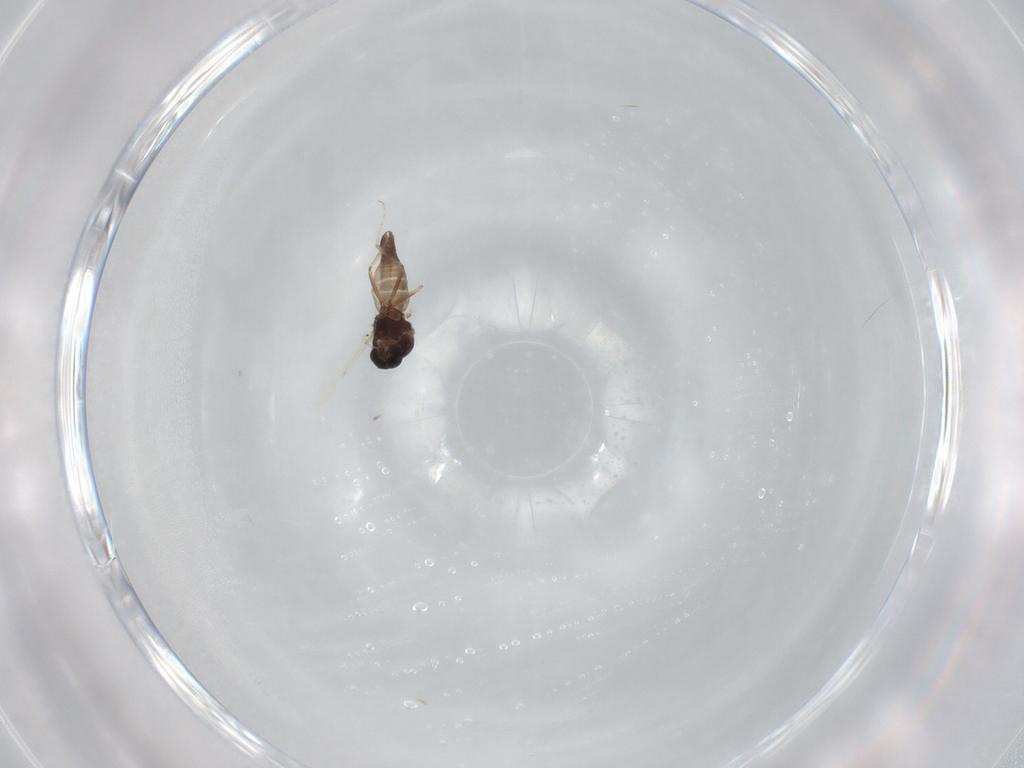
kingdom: Animalia
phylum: Arthropoda
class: Insecta
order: Diptera
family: Ceratopogonidae
